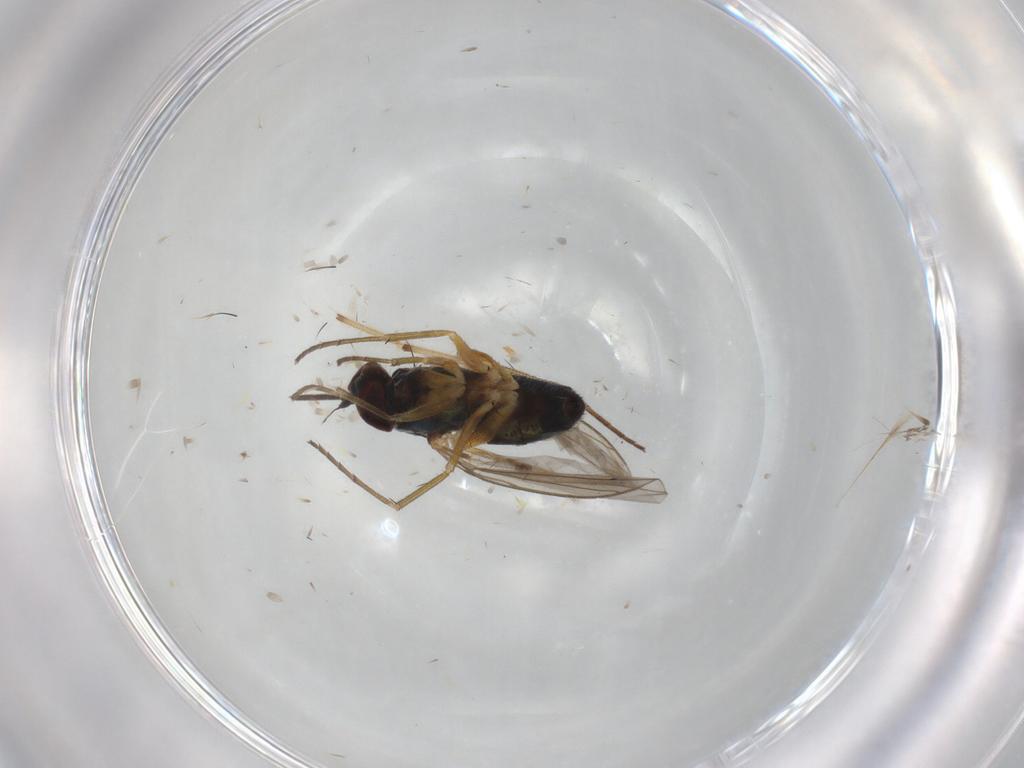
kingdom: Animalia
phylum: Arthropoda
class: Insecta
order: Diptera
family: Dolichopodidae
